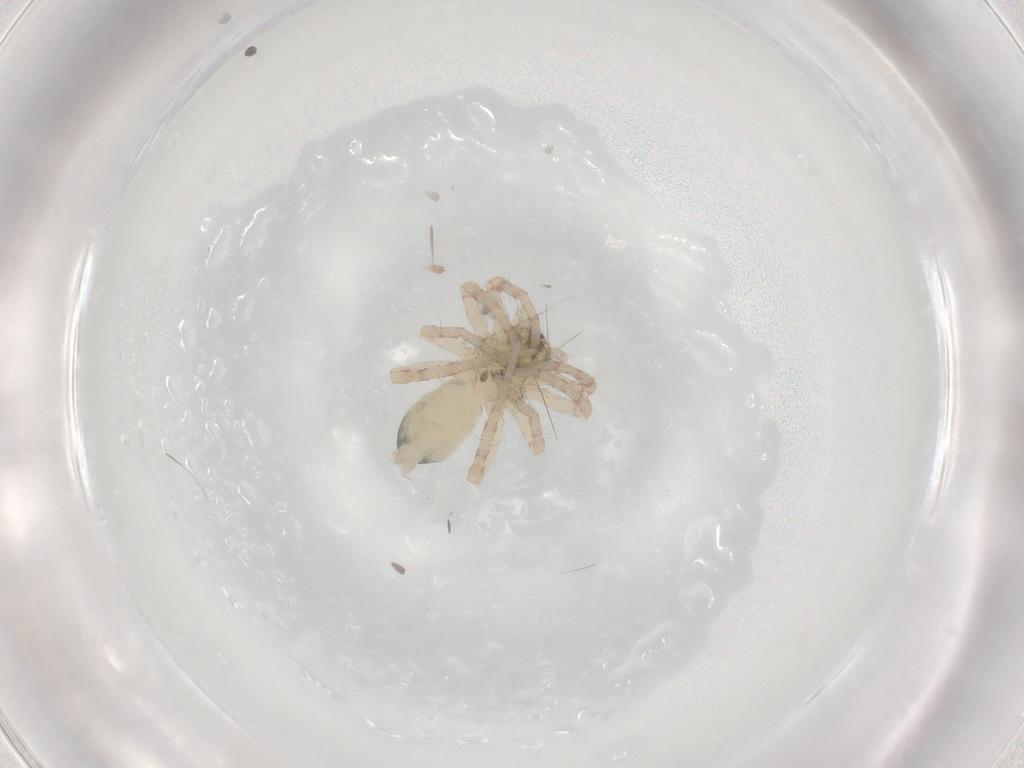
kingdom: Animalia
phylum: Arthropoda
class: Arachnida
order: Araneae
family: Anyphaenidae
